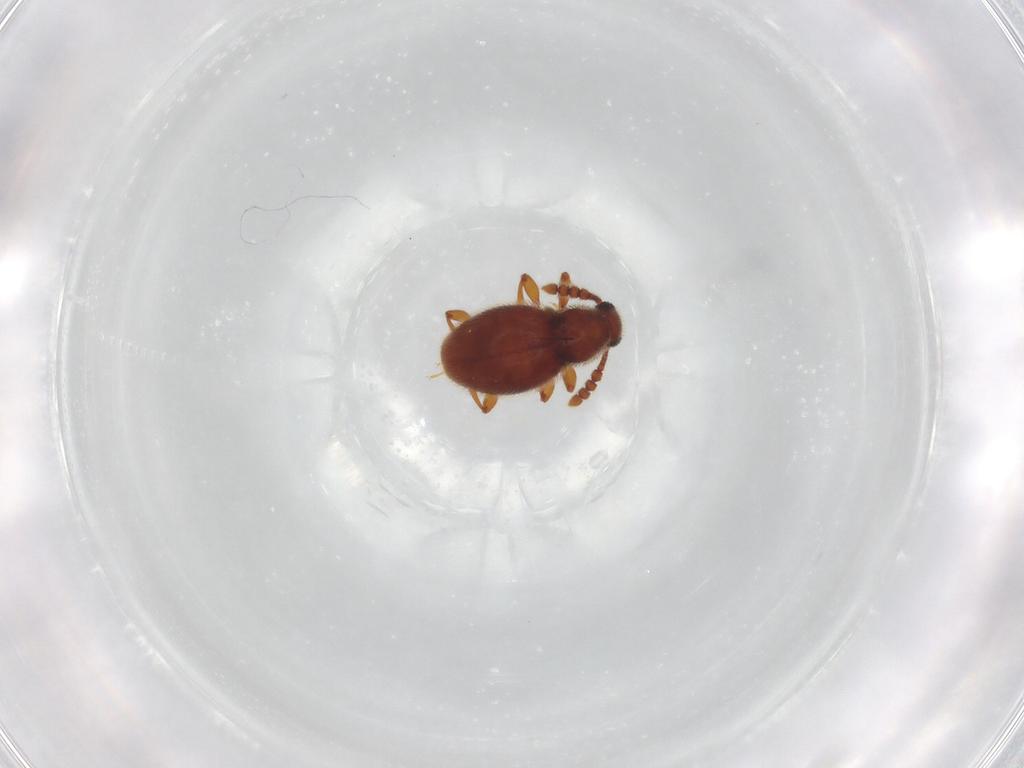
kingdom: Animalia
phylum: Arthropoda
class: Insecta
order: Coleoptera
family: Staphylinidae
